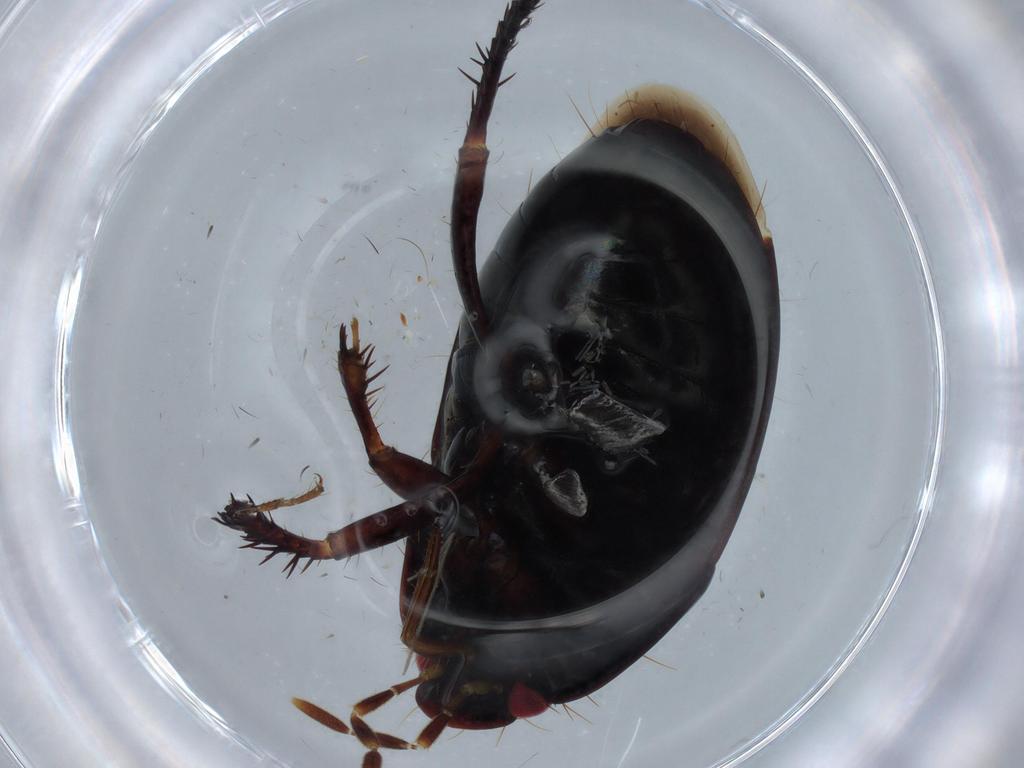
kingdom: Animalia
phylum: Arthropoda
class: Insecta
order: Hemiptera
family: Cydnidae
